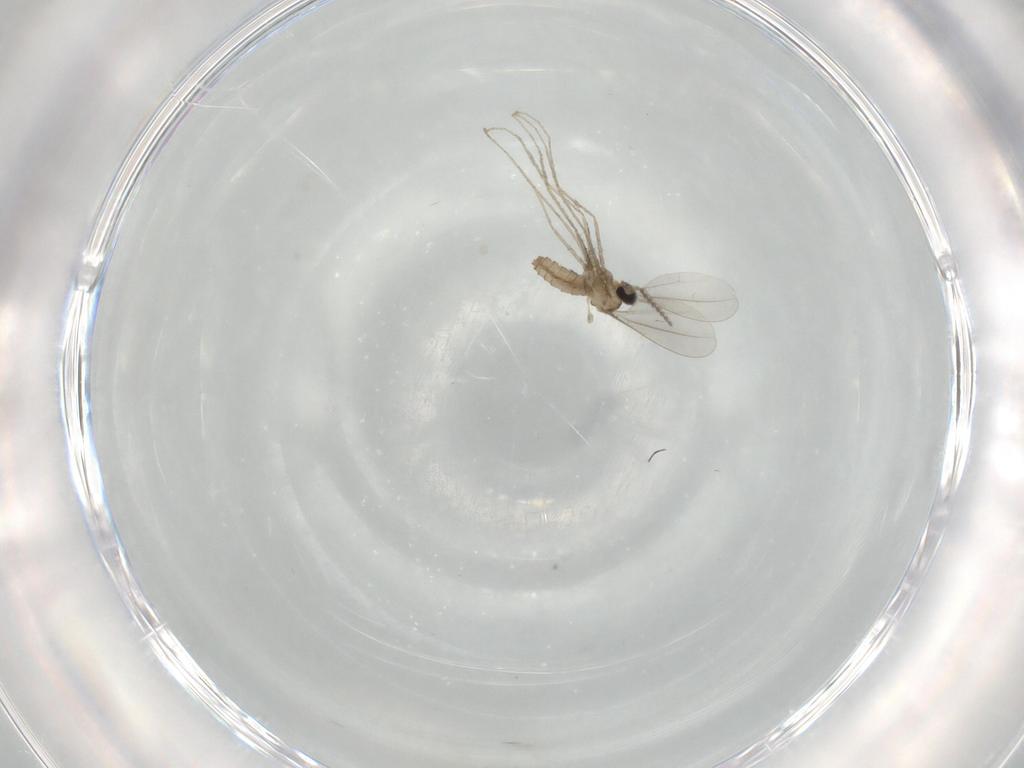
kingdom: Animalia
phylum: Arthropoda
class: Insecta
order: Diptera
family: Cecidomyiidae
